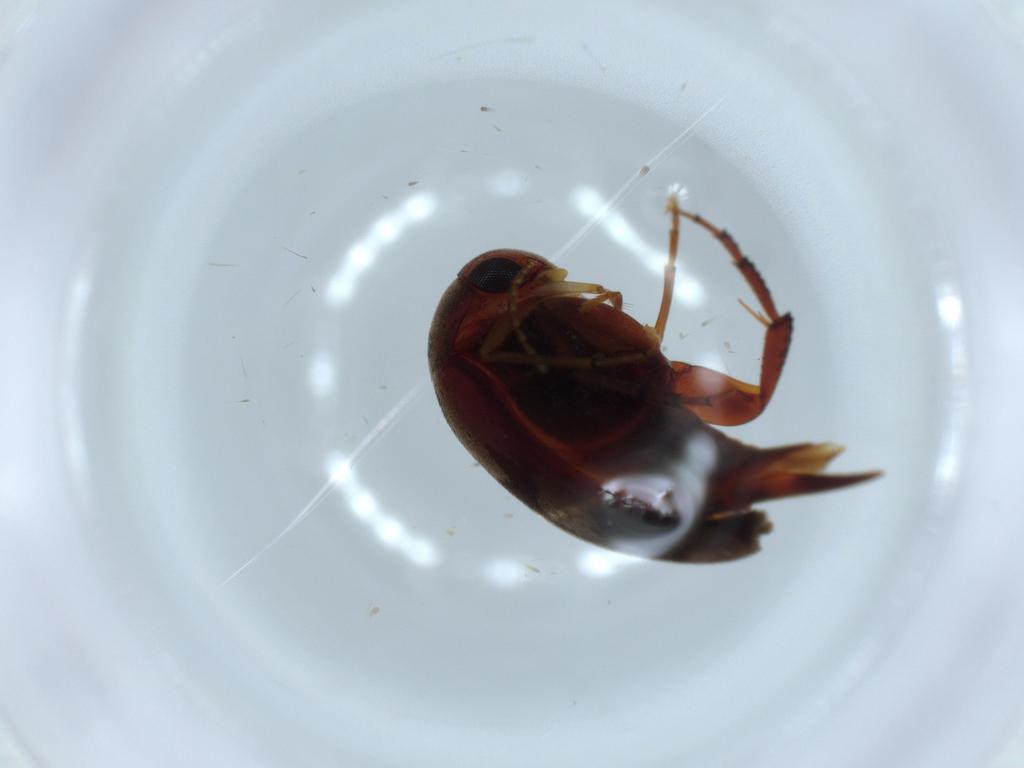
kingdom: Animalia
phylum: Arthropoda
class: Insecta
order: Coleoptera
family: Mordellidae
